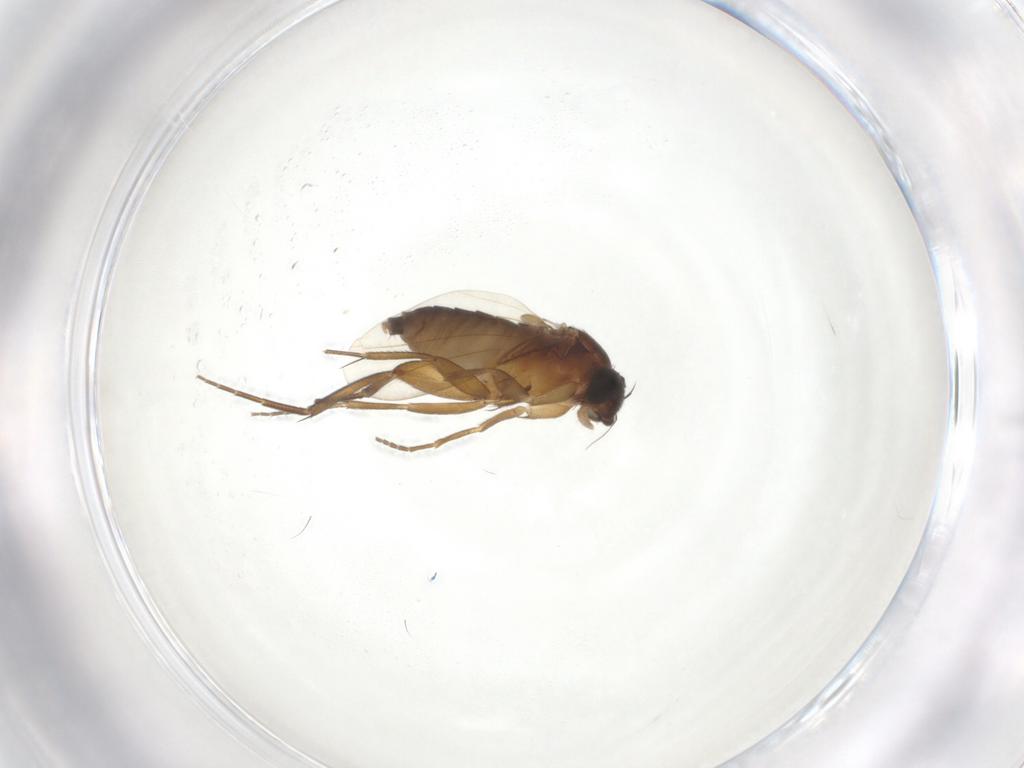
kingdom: Animalia
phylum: Arthropoda
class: Insecta
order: Diptera
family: Phoridae
